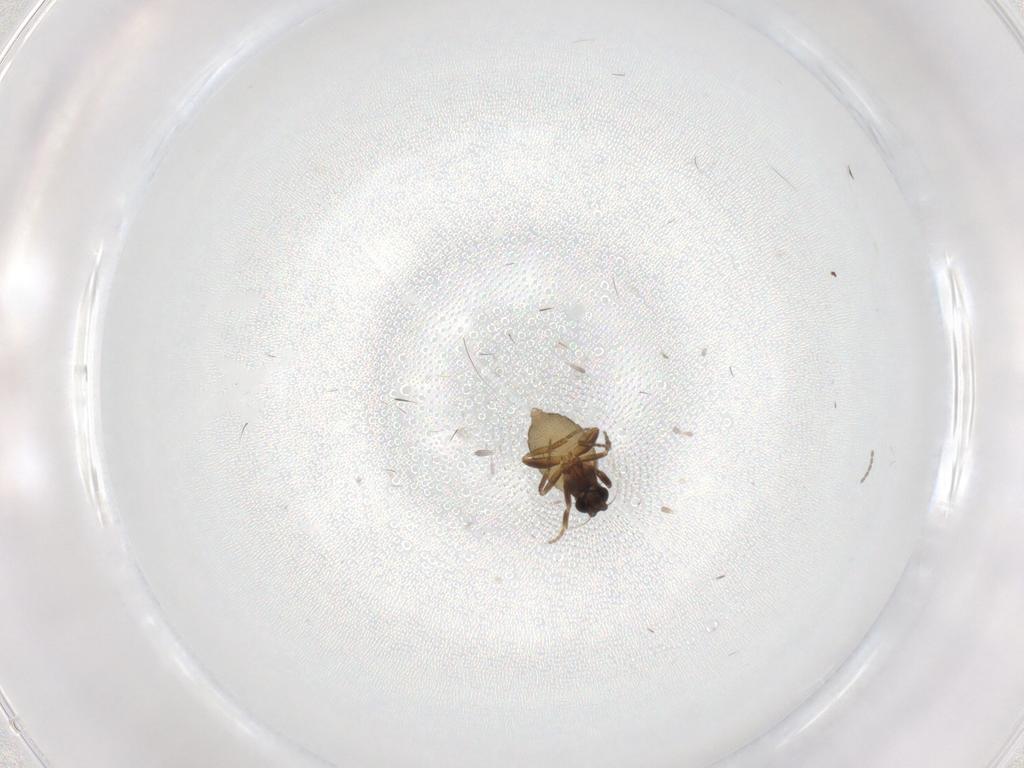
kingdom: Animalia
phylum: Arthropoda
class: Insecta
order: Diptera
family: Phoridae
